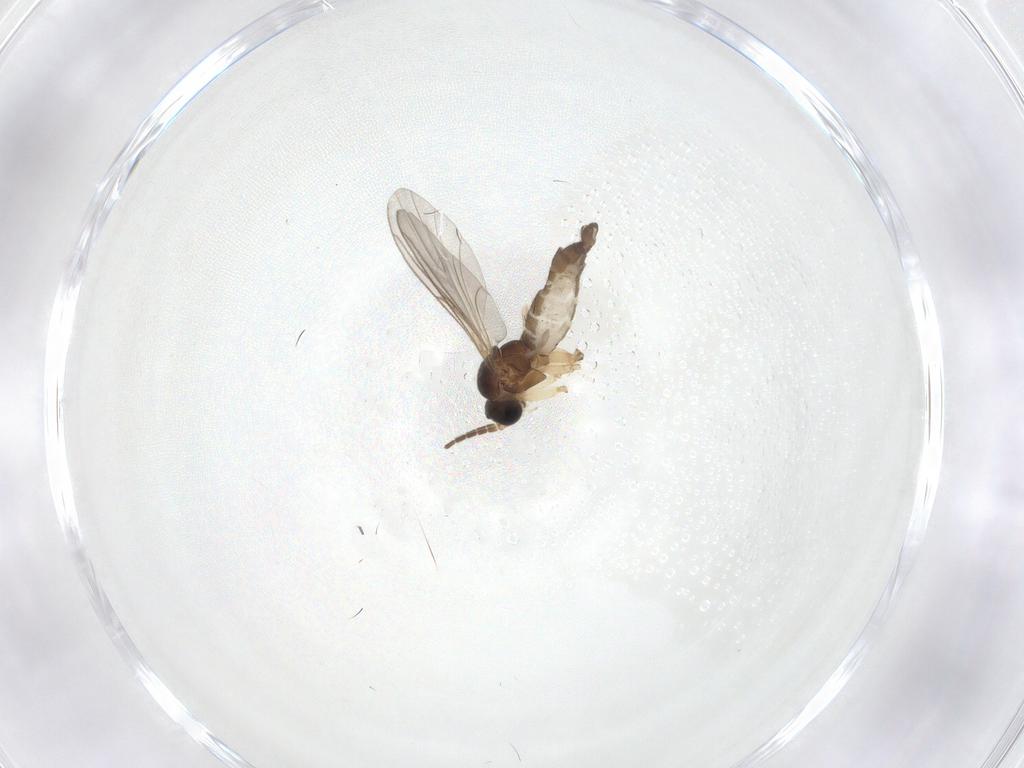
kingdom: Animalia
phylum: Arthropoda
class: Insecta
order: Diptera
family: Sciaridae
